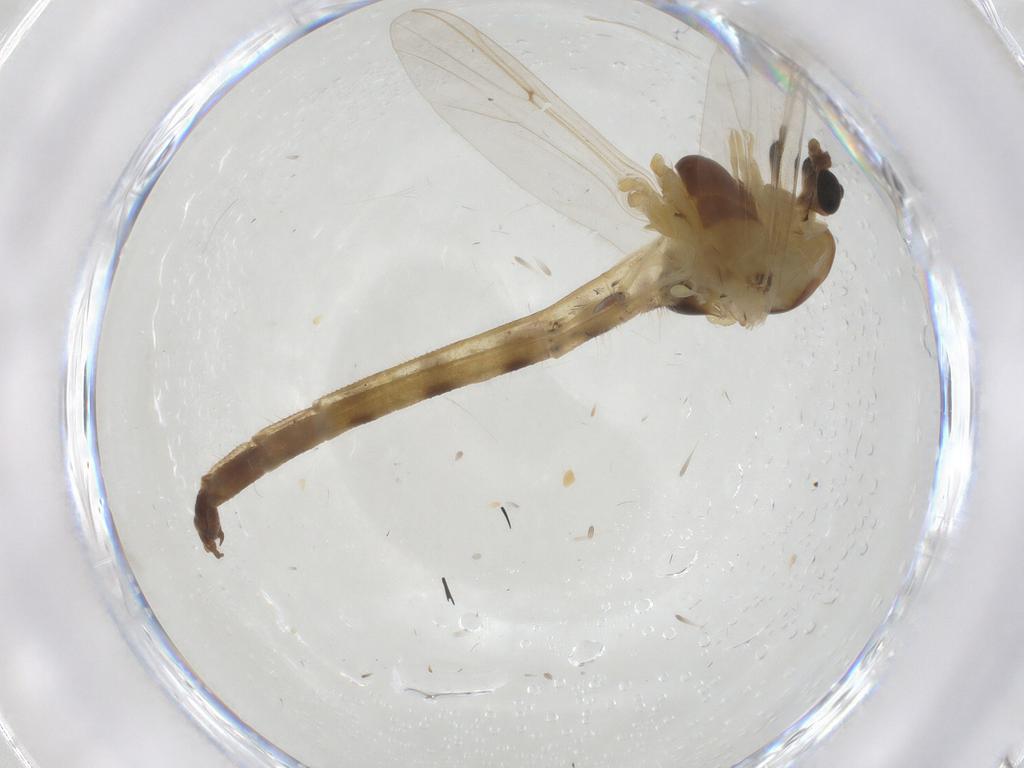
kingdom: Animalia
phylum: Arthropoda
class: Insecta
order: Diptera
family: Chironomidae
